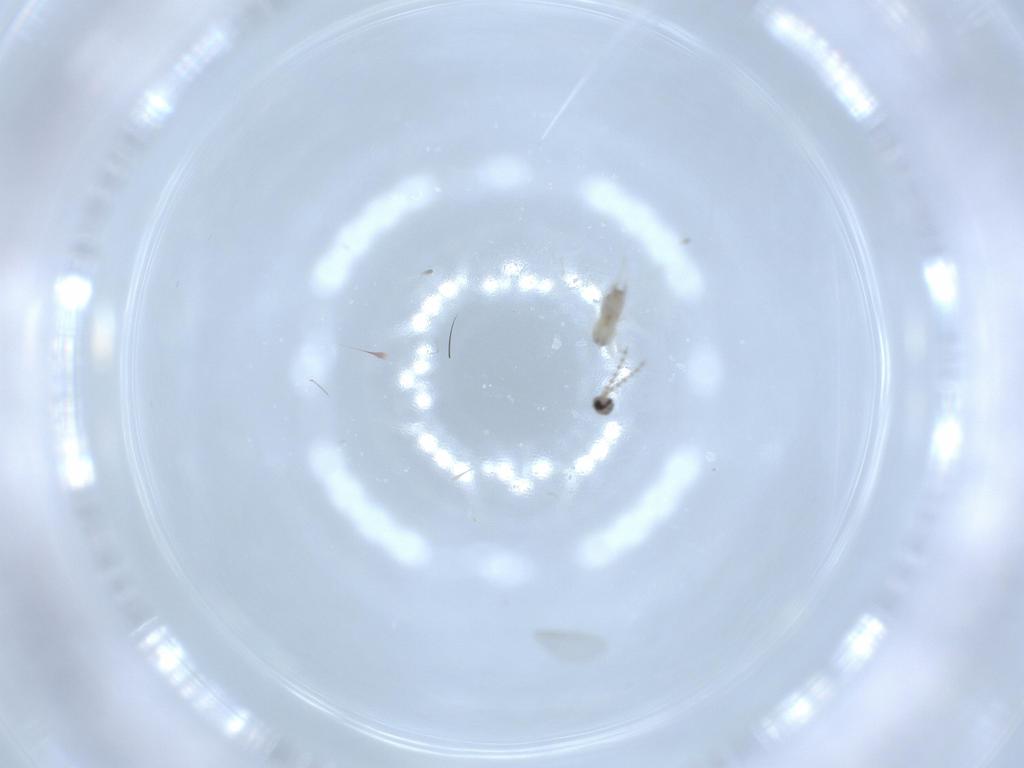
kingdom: Animalia
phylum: Arthropoda
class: Insecta
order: Diptera
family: Cecidomyiidae
